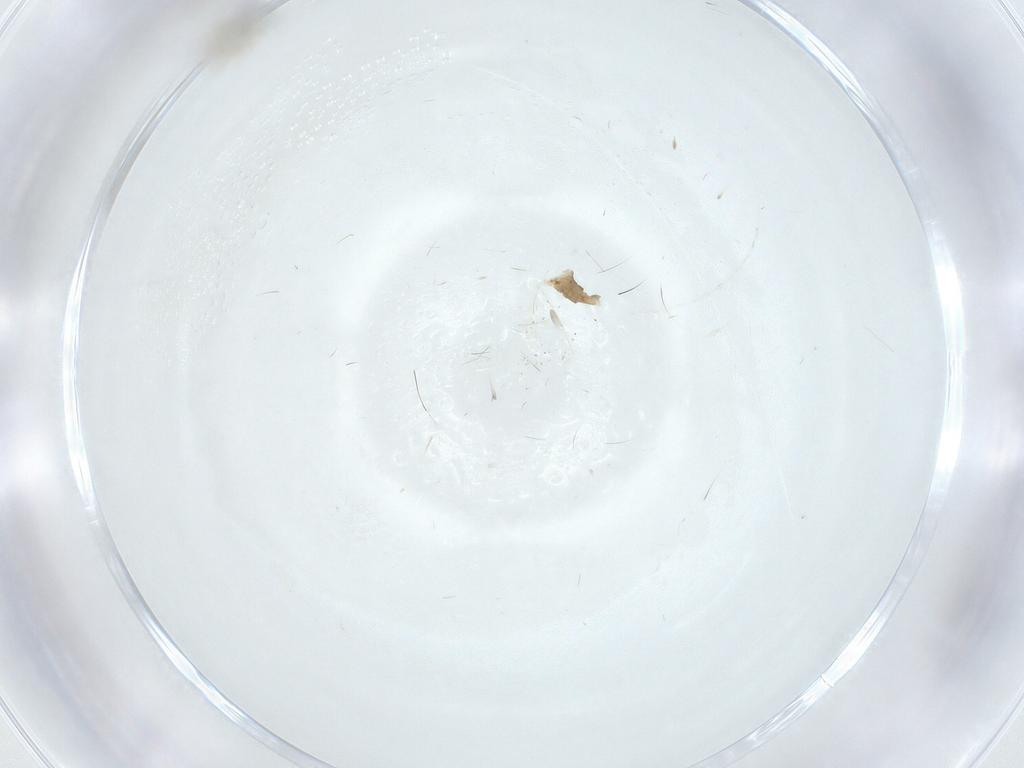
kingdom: Animalia
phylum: Arthropoda
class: Insecta
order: Diptera
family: Cecidomyiidae
